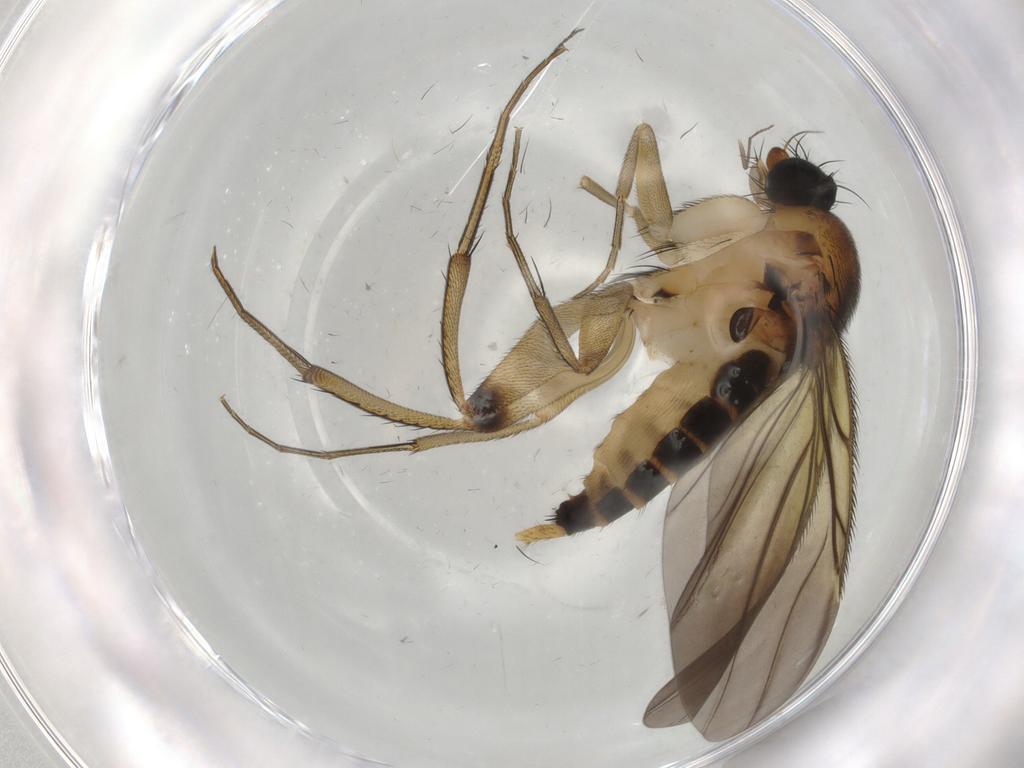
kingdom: Animalia
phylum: Arthropoda
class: Insecta
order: Diptera
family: Phoridae
